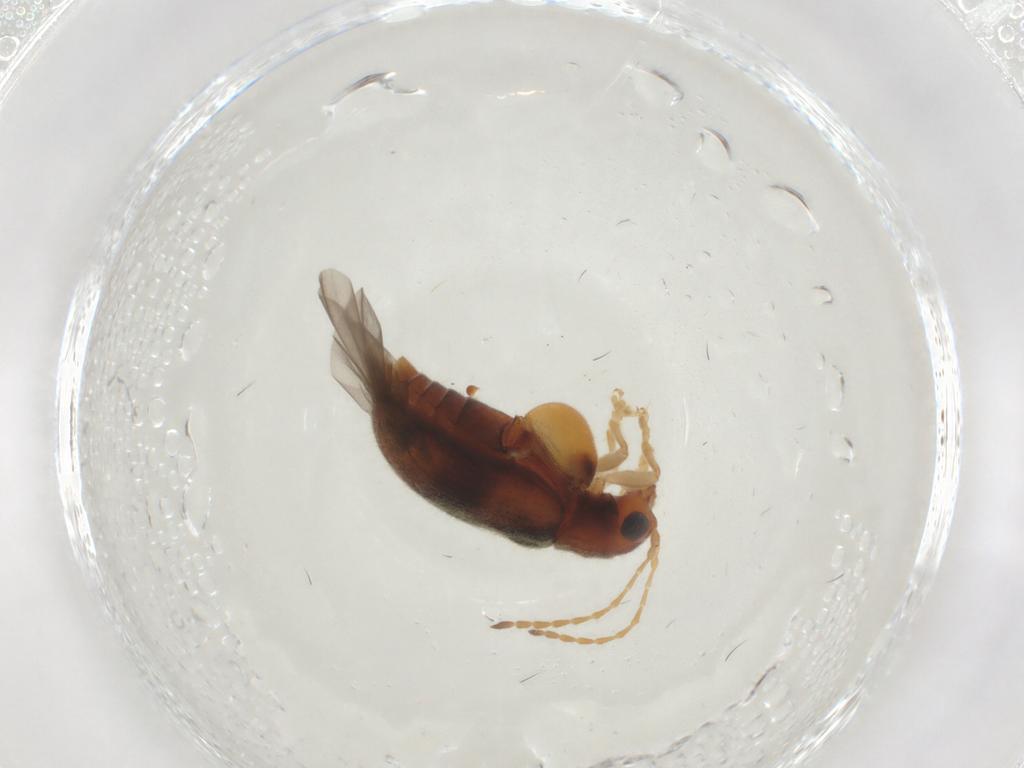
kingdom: Animalia
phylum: Arthropoda
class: Insecta
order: Coleoptera
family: Chrysomelidae
